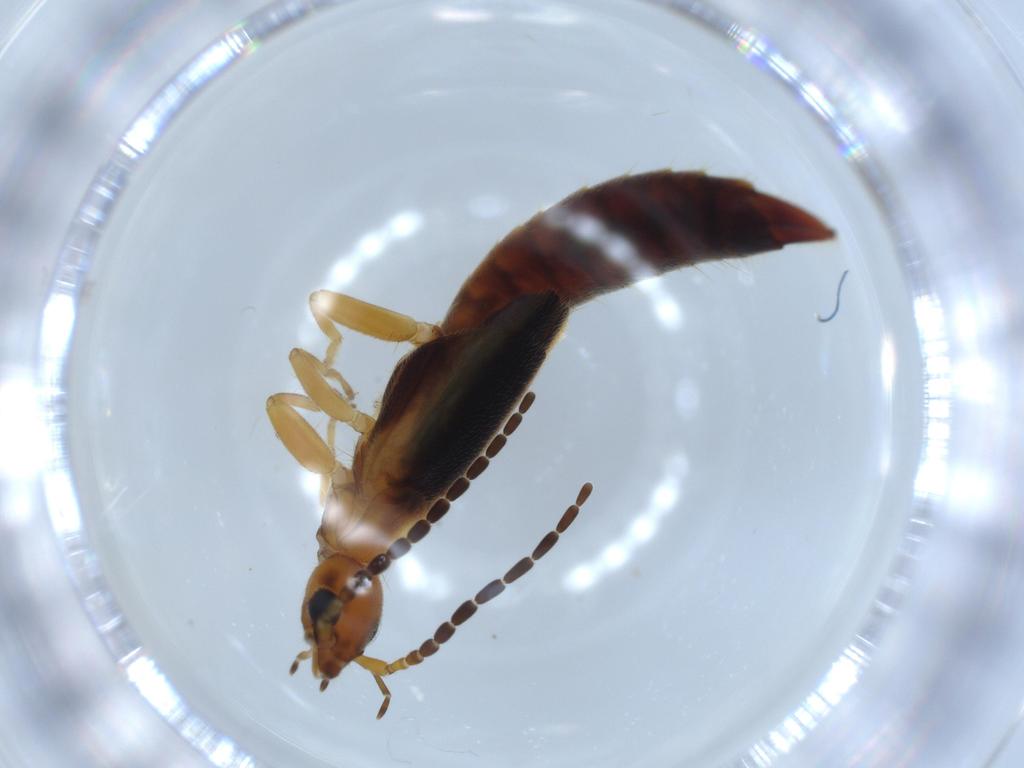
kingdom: Animalia
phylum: Arthropoda
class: Insecta
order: Dermaptera
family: Forficulidae
